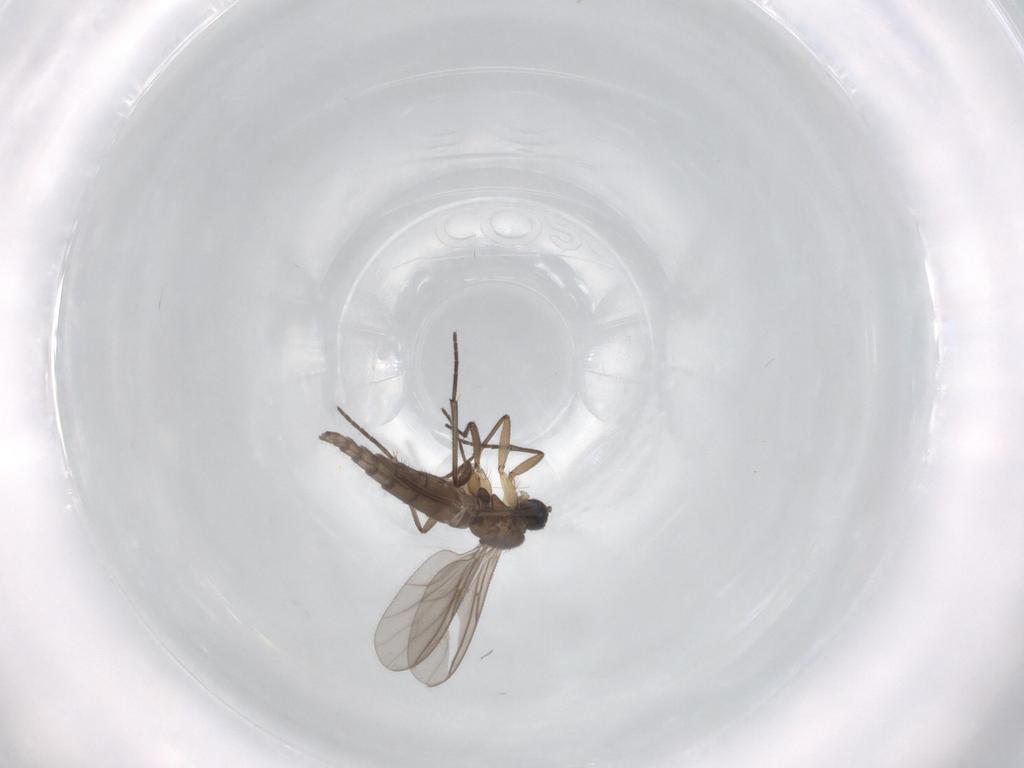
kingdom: Animalia
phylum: Arthropoda
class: Insecta
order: Diptera
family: Cecidomyiidae
